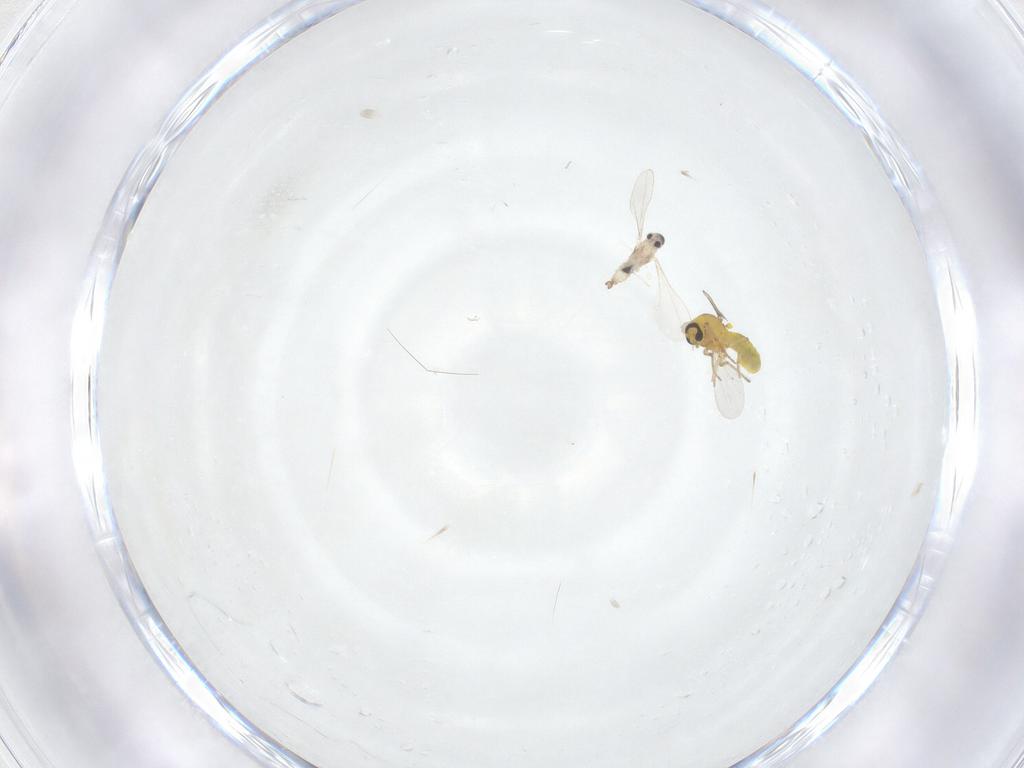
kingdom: Animalia
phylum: Arthropoda
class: Insecta
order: Diptera
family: Ceratopogonidae
